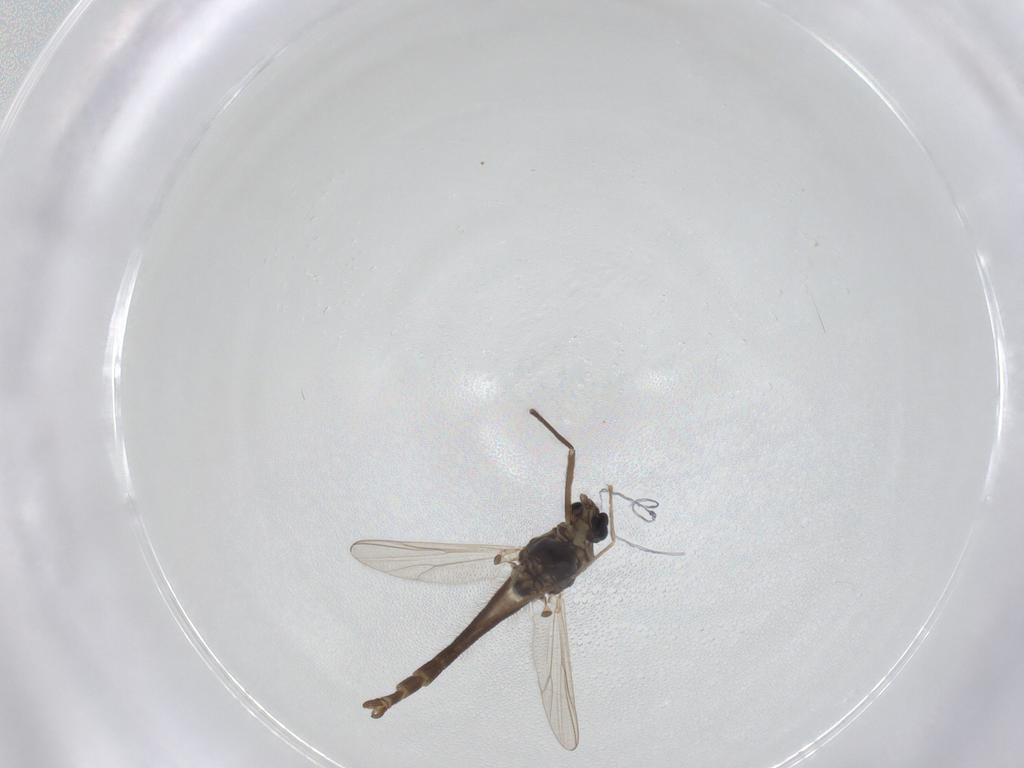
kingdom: Animalia
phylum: Arthropoda
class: Insecta
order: Diptera
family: Chironomidae
